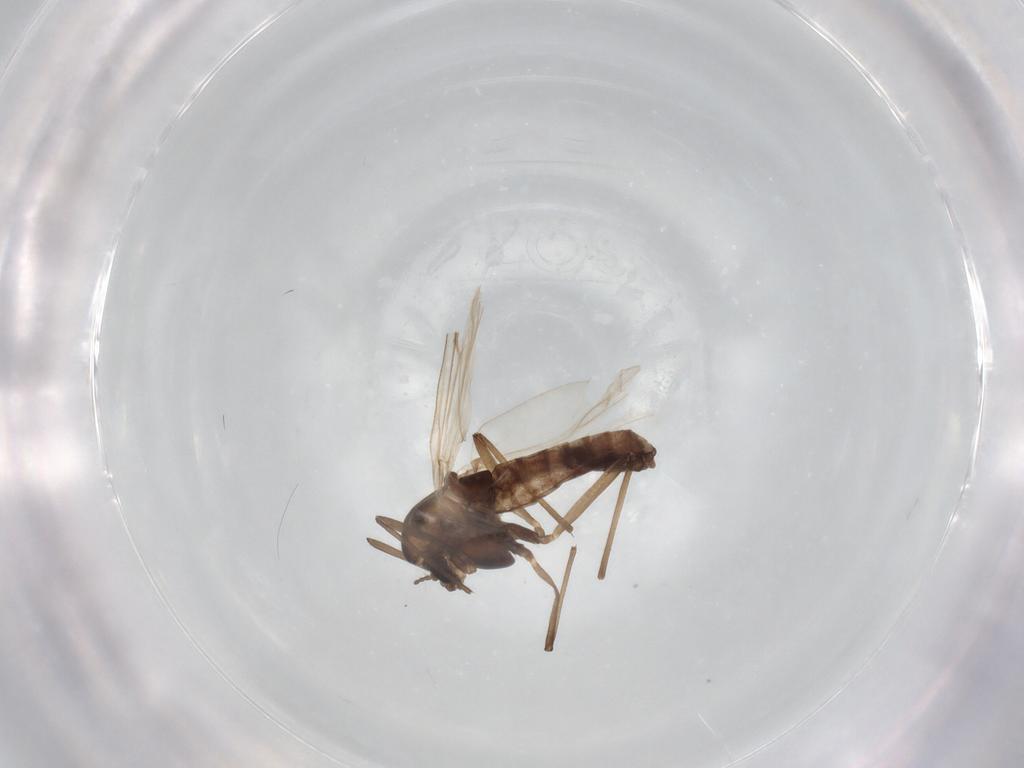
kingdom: Animalia
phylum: Arthropoda
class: Insecta
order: Diptera
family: Chironomidae
